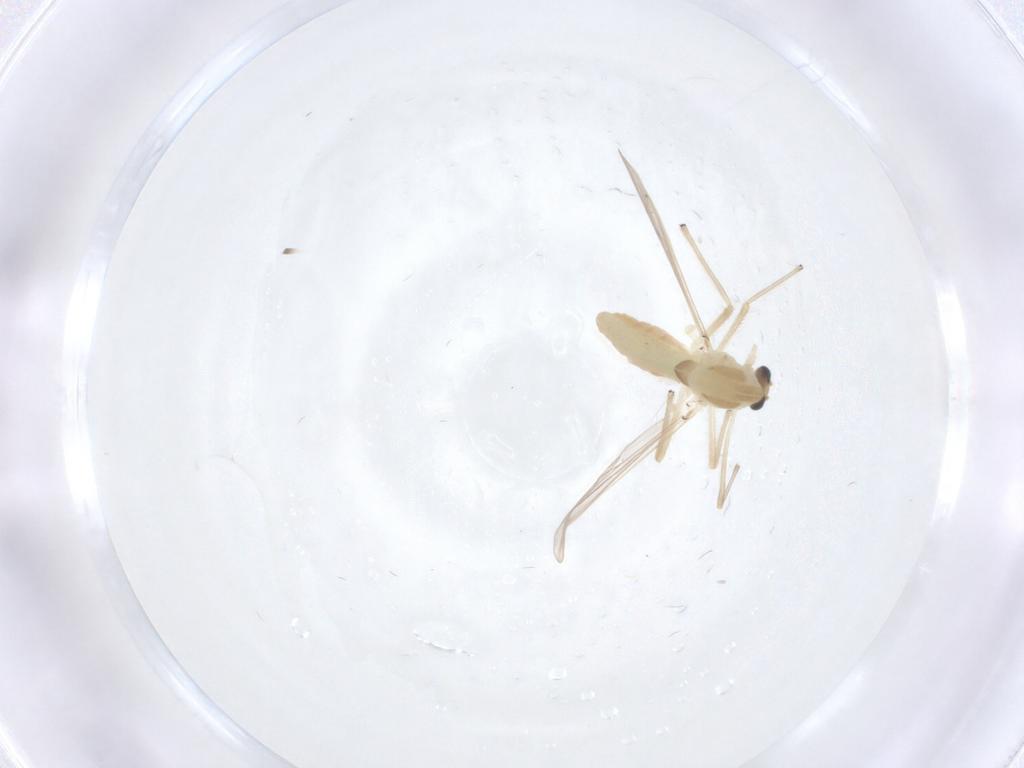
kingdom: Animalia
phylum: Arthropoda
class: Insecta
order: Diptera
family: Chironomidae
